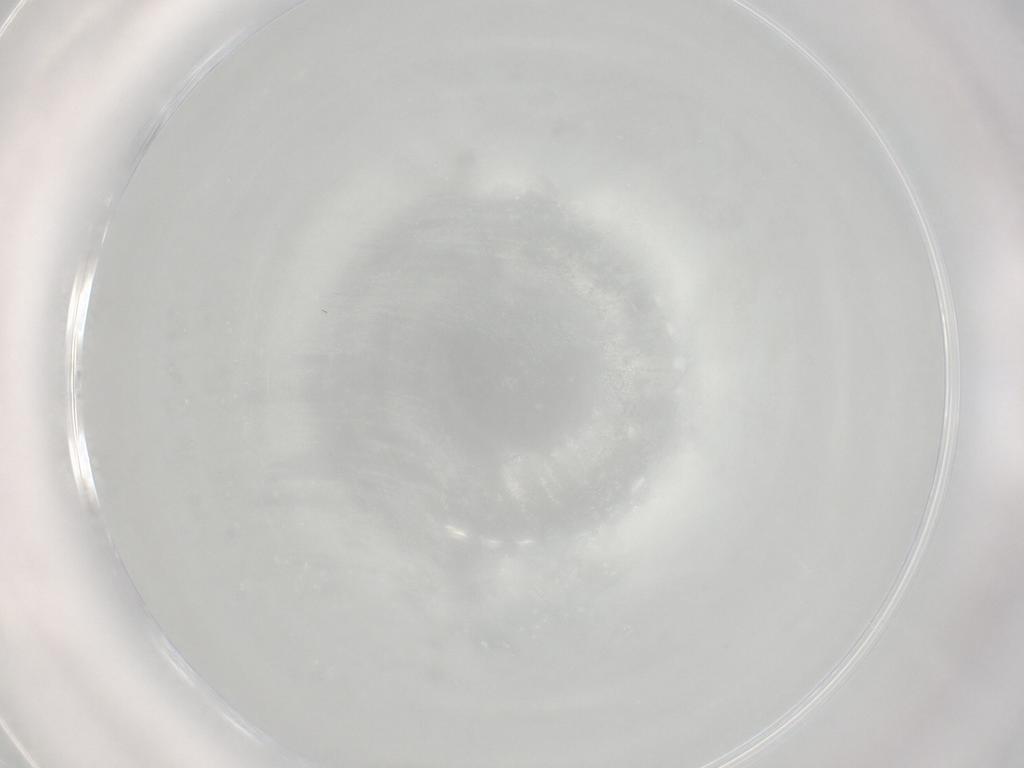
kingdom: Animalia
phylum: Arthropoda
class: Insecta
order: Diptera
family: Cecidomyiidae
